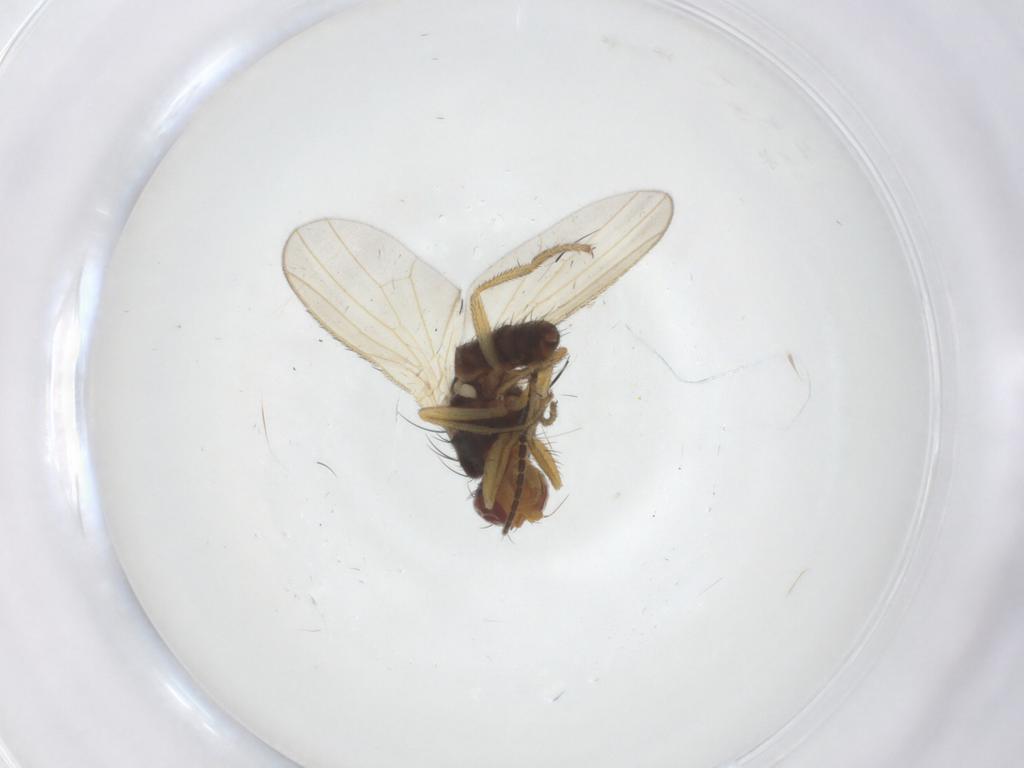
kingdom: Animalia
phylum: Arthropoda
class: Insecta
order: Diptera
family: Heleomyzidae
